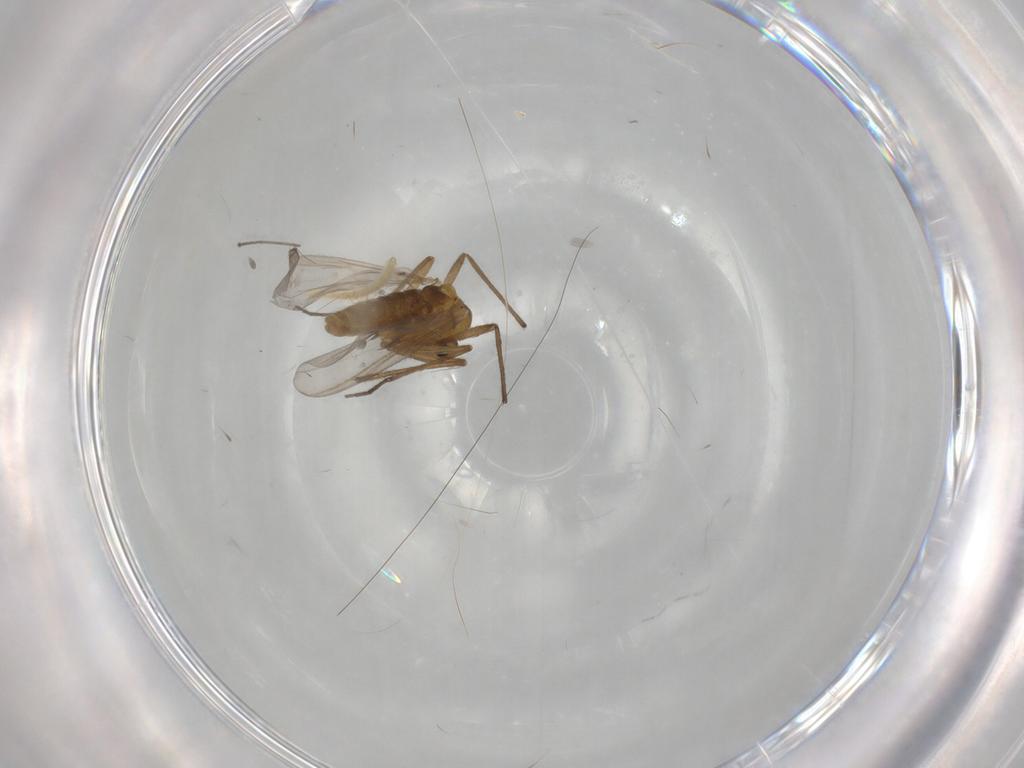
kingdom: Animalia
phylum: Arthropoda
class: Insecta
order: Diptera
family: Chironomidae
